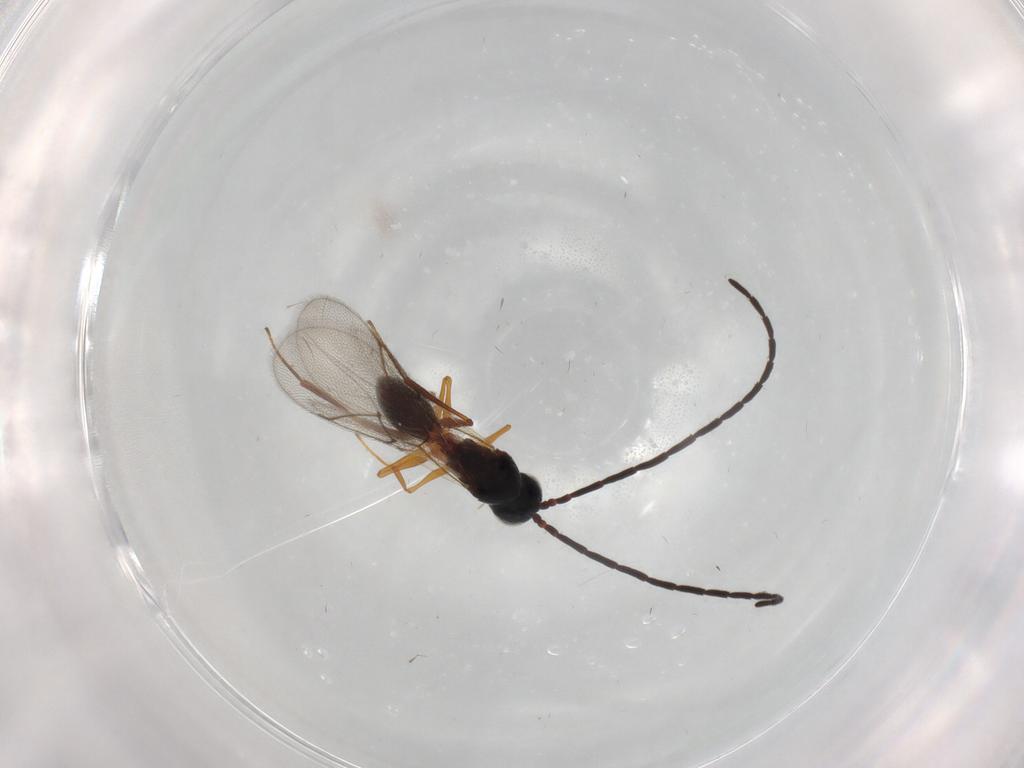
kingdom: Animalia
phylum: Arthropoda
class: Insecta
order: Hymenoptera
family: Figitidae
